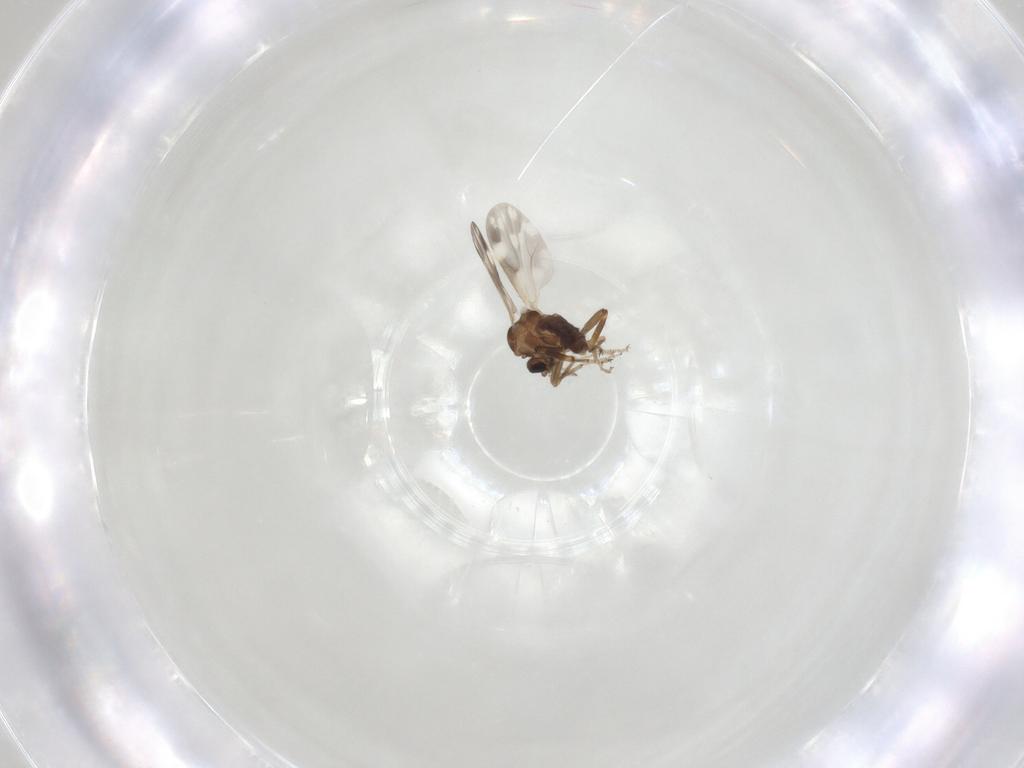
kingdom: Animalia
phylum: Arthropoda
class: Insecta
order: Diptera
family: Ceratopogonidae
